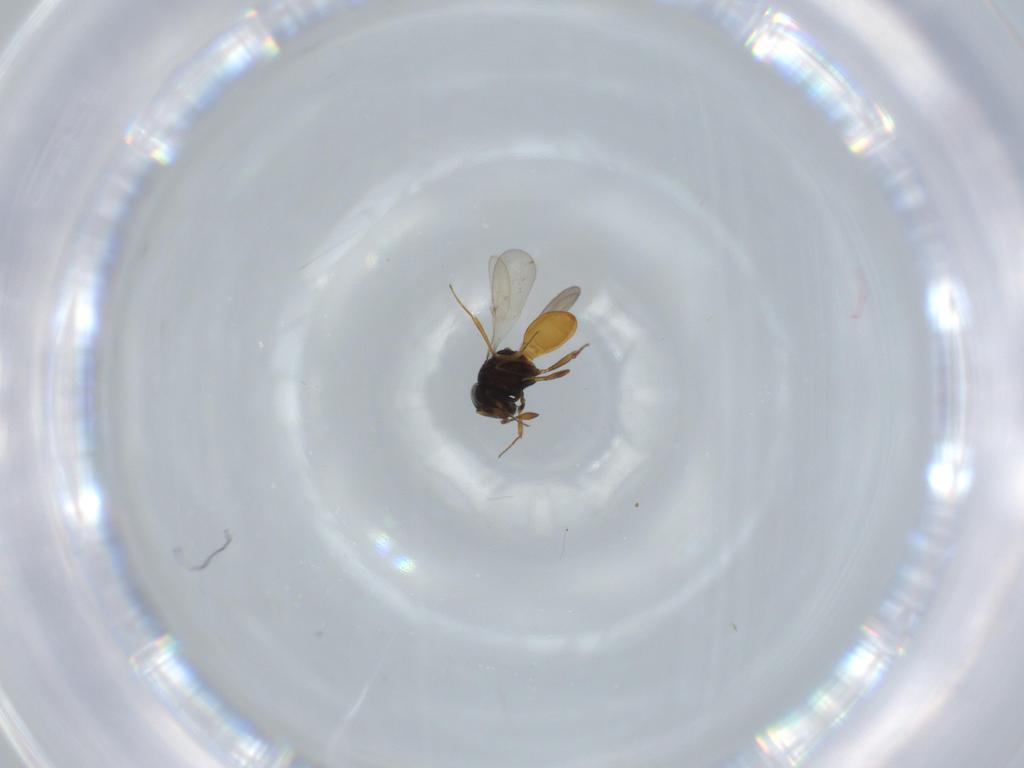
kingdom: Animalia
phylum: Arthropoda
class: Insecta
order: Hymenoptera
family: Scelionidae
